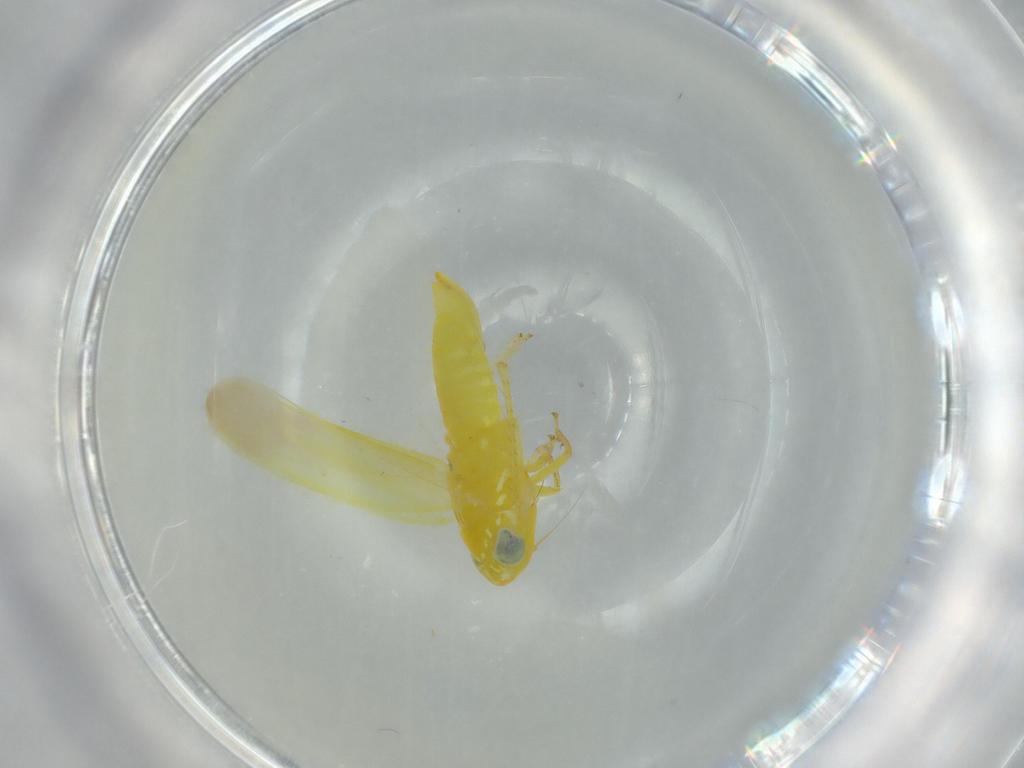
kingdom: Animalia
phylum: Arthropoda
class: Insecta
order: Hemiptera
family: Cicadellidae
